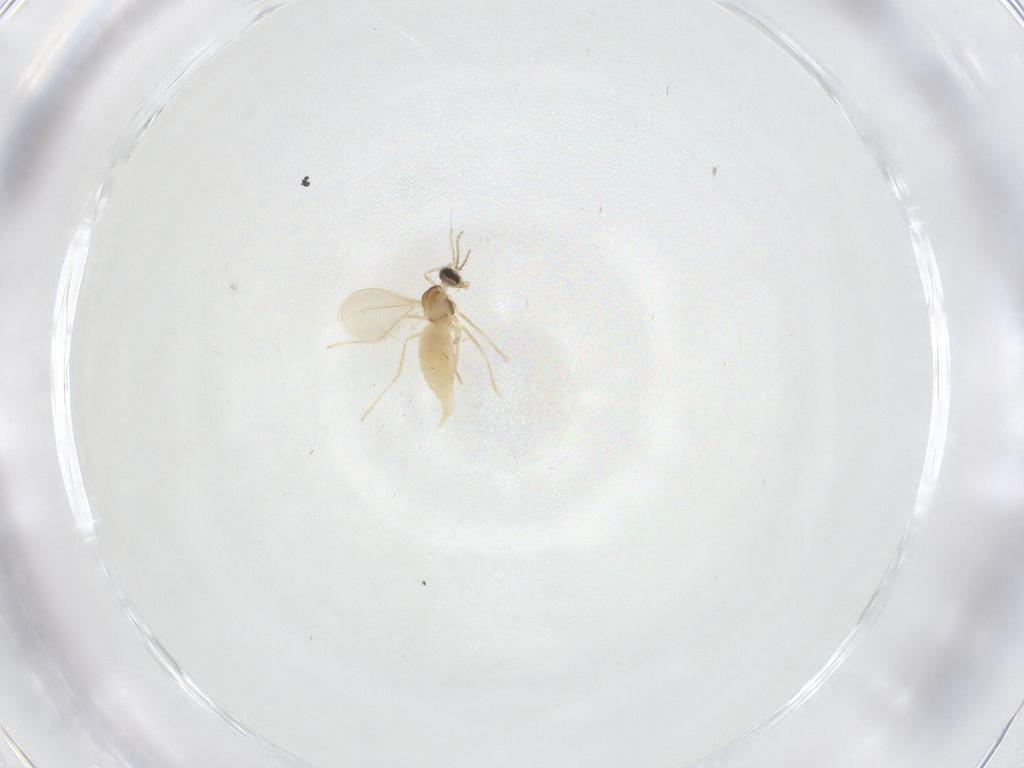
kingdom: Animalia
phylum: Arthropoda
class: Insecta
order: Diptera
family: Cecidomyiidae
